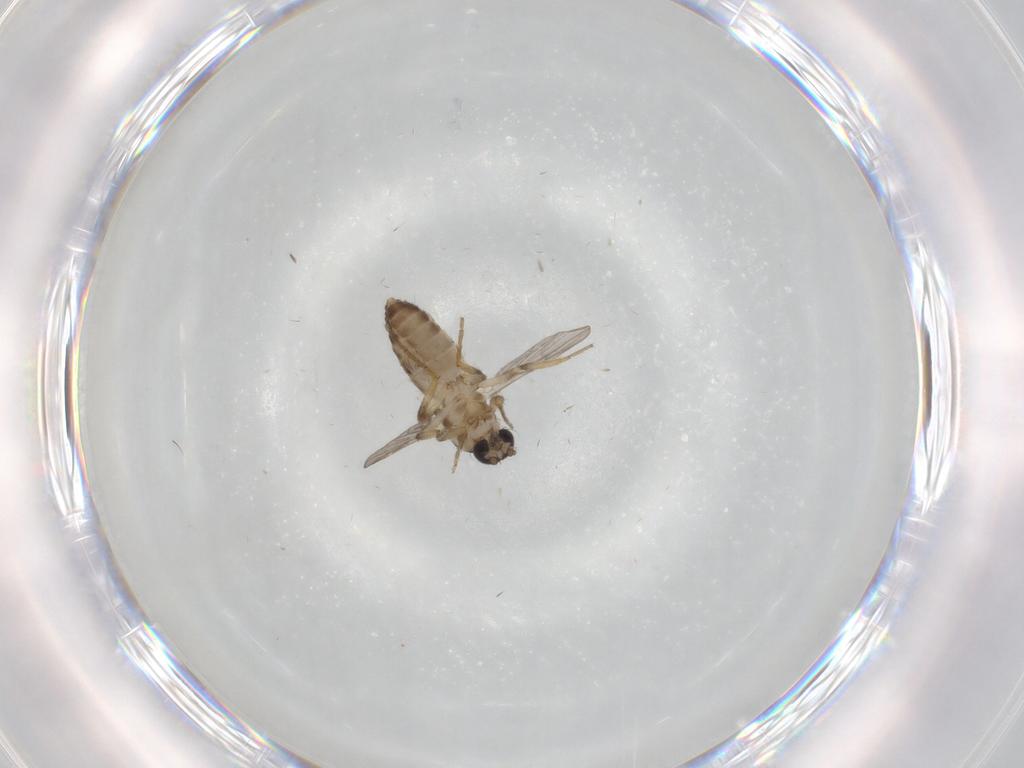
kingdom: Animalia
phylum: Arthropoda
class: Insecta
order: Diptera
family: Ceratopogonidae
